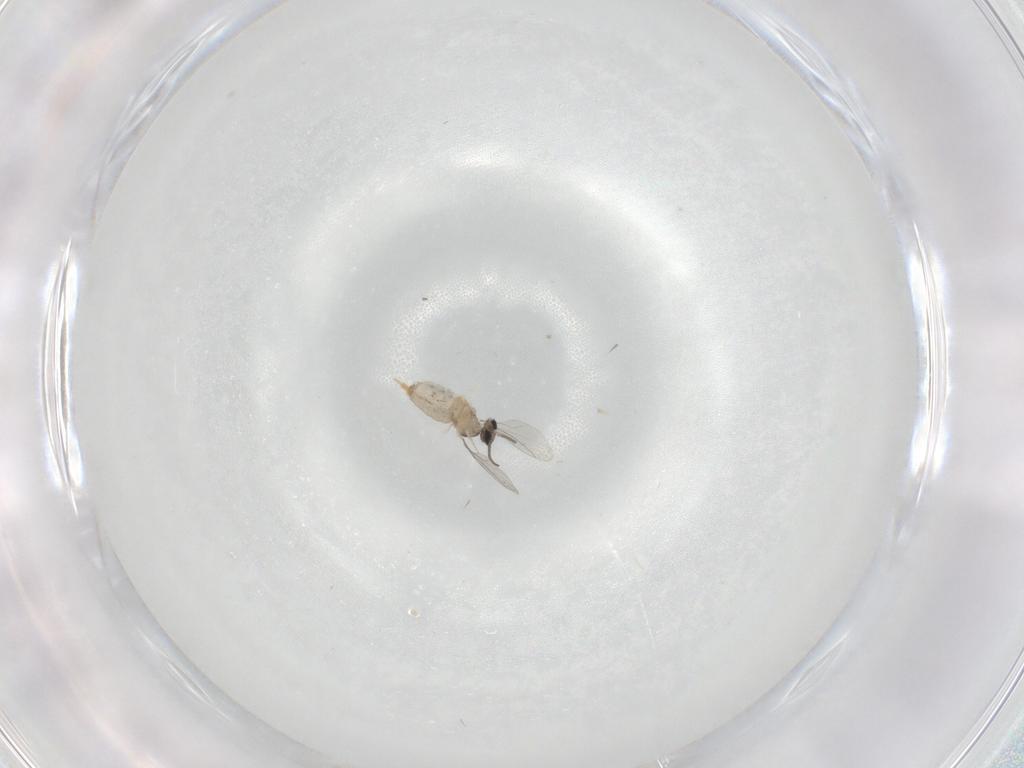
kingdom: Animalia
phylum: Arthropoda
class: Insecta
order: Diptera
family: Cecidomyiidae
